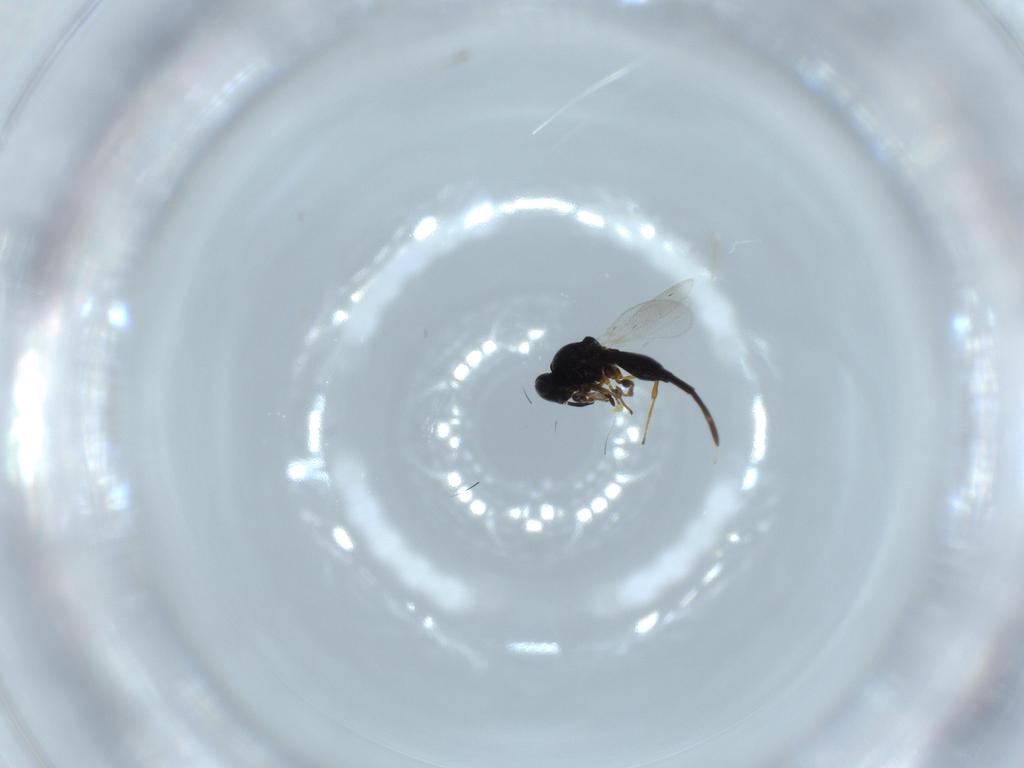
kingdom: Animalia
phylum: Arthropoda
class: Insecta
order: Hymenoptera
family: Platygastridae
